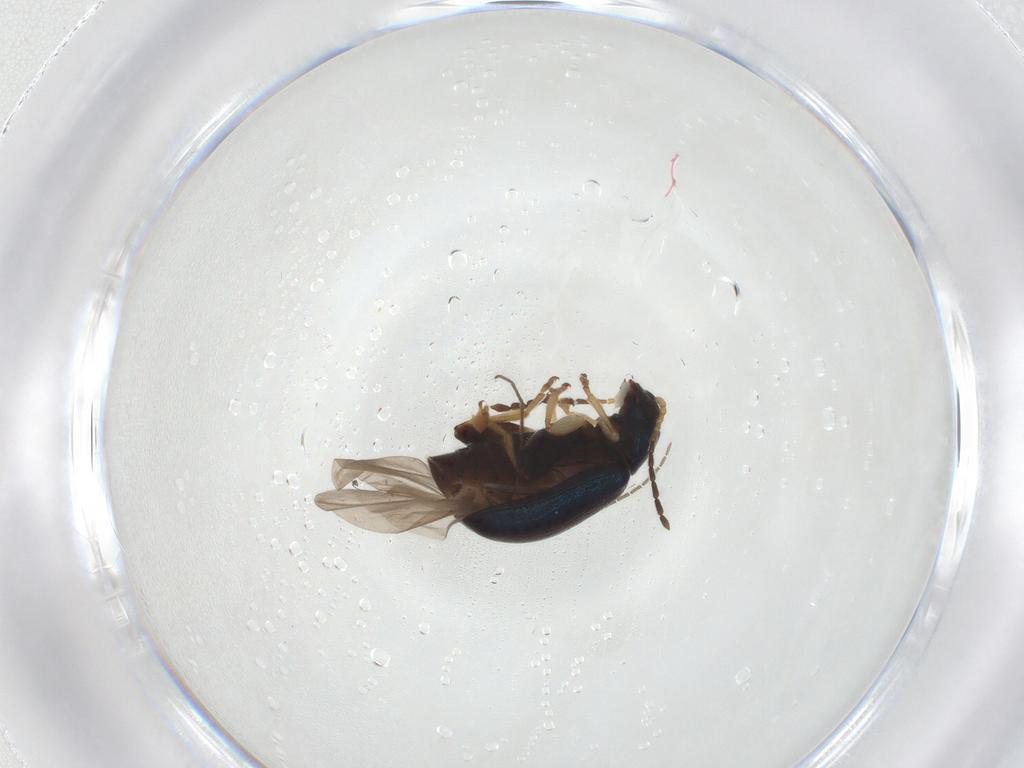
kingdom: Animalia
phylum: Arthropoda
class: Insecta
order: Coleoptera
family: Chrysomelidae
